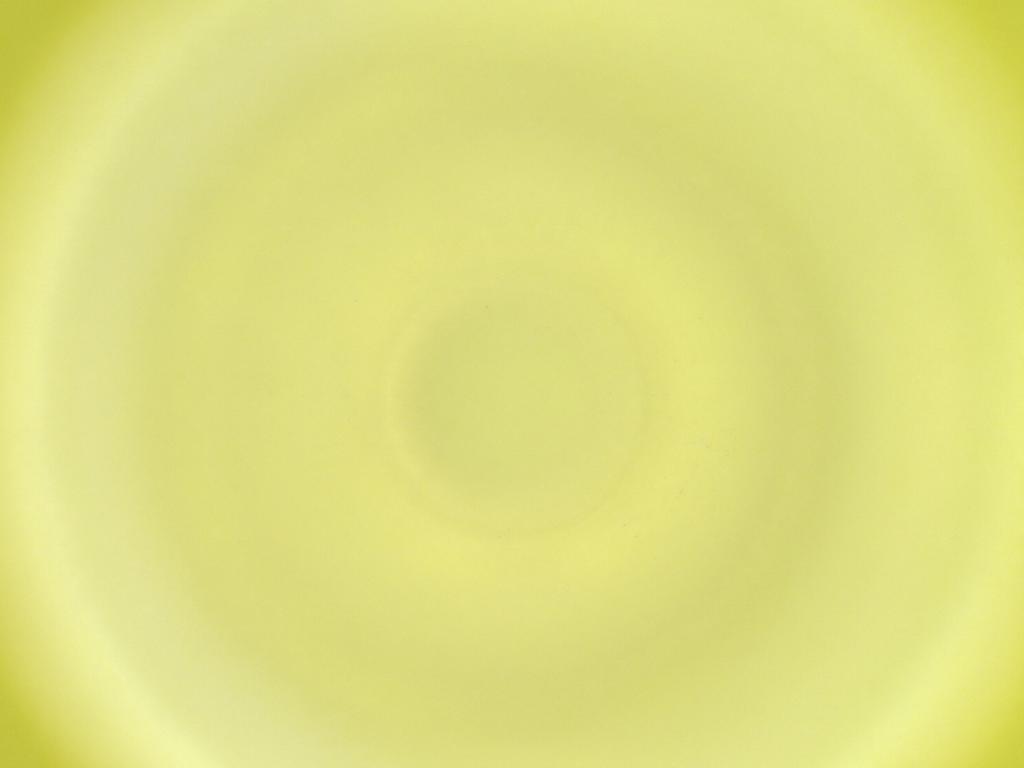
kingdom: Animalia
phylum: Arthropoda
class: Insecta
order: Diptera
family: Cecidomyiidae
